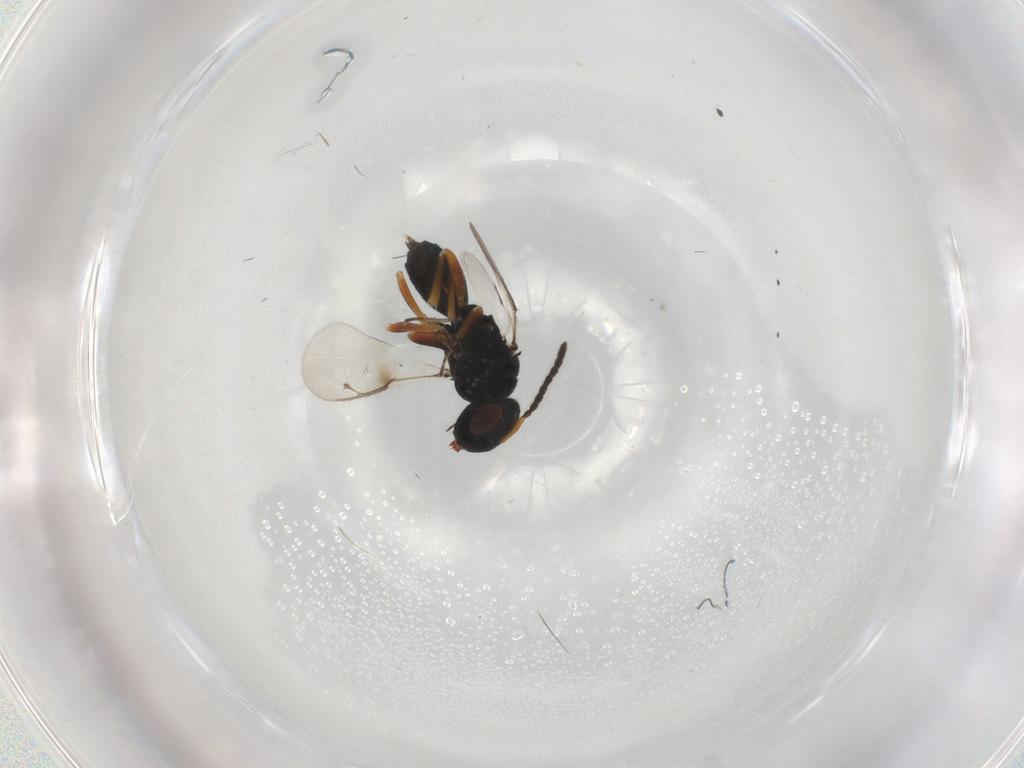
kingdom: Animalia
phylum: Arthropoda
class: Insecta
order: Hymenoptera
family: Pteromalidae
